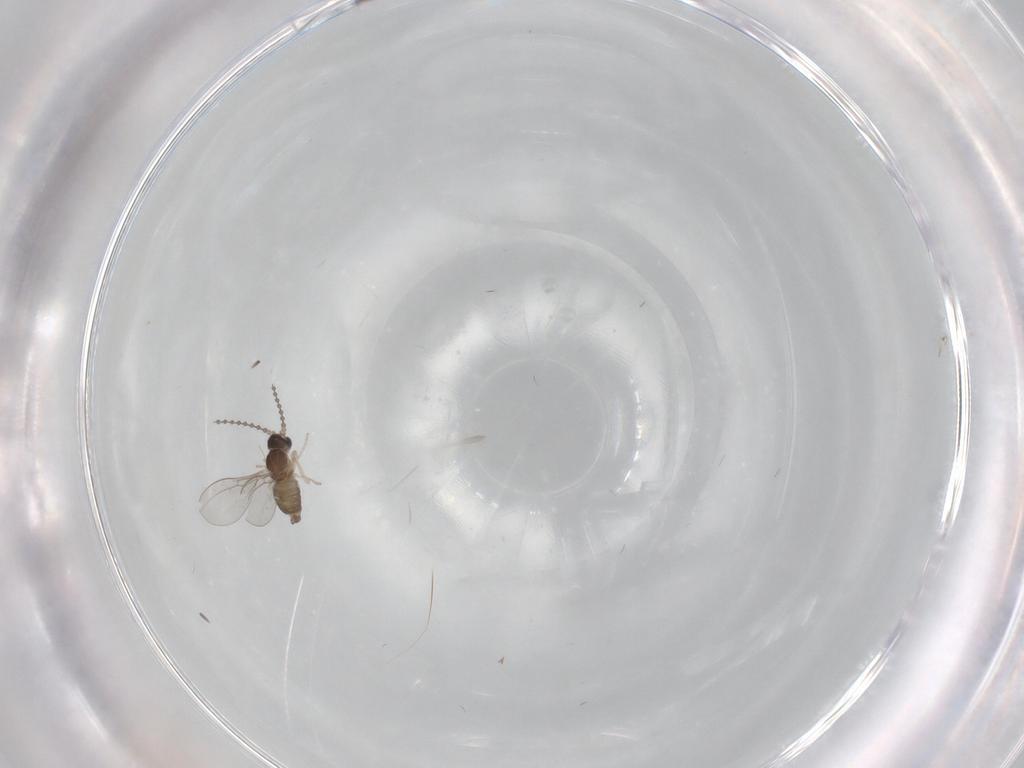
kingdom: Animalia
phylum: Arthropoda
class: Insecta
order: Diptera
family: Cecidomyiidae
